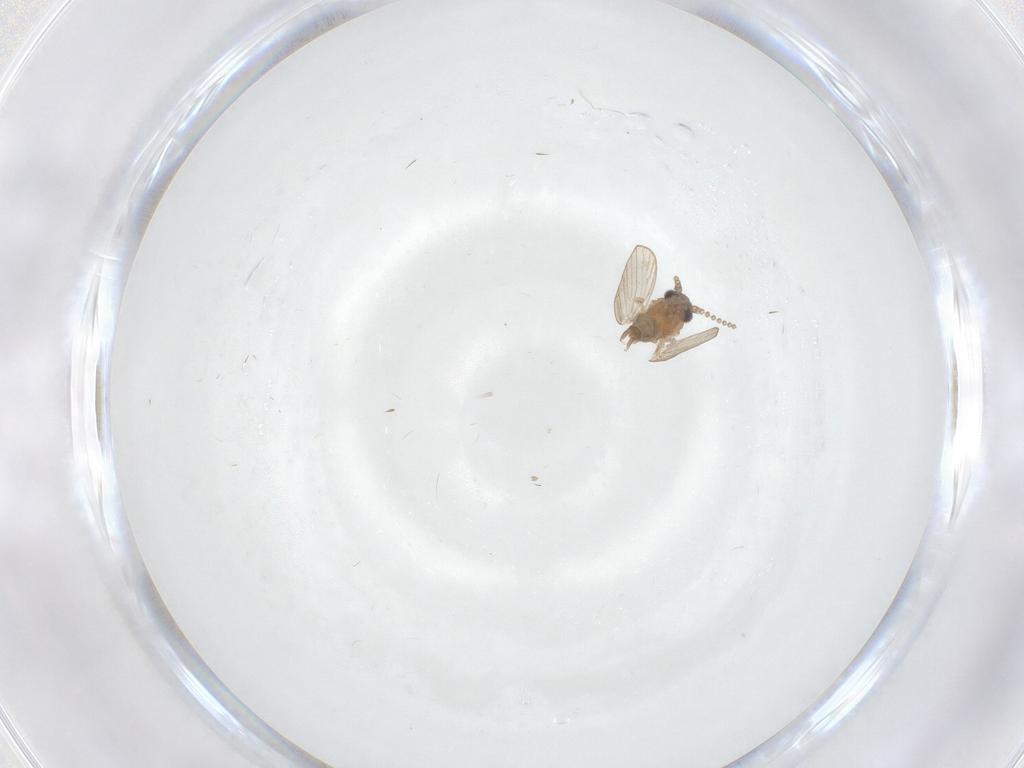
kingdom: Animalia
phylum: Arthropoda
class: Insecta
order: Diptera
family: Psychodidae
